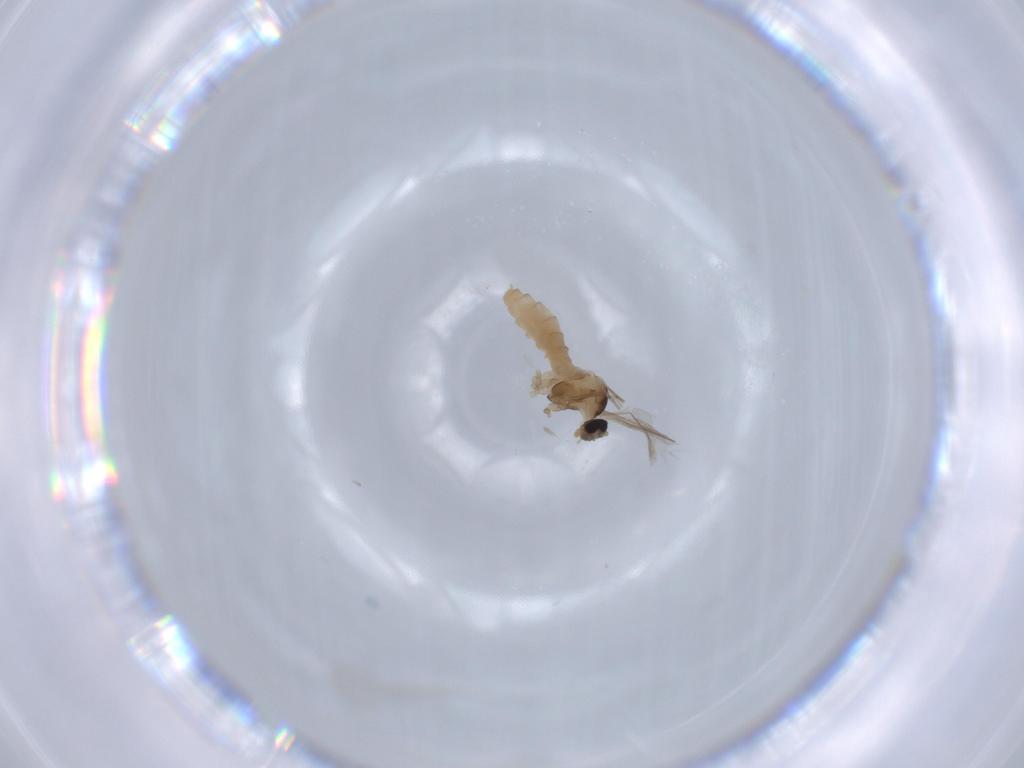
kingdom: Animalia
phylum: Arthropoda
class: Insecta
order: Diptera
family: Cecidomyiidae
